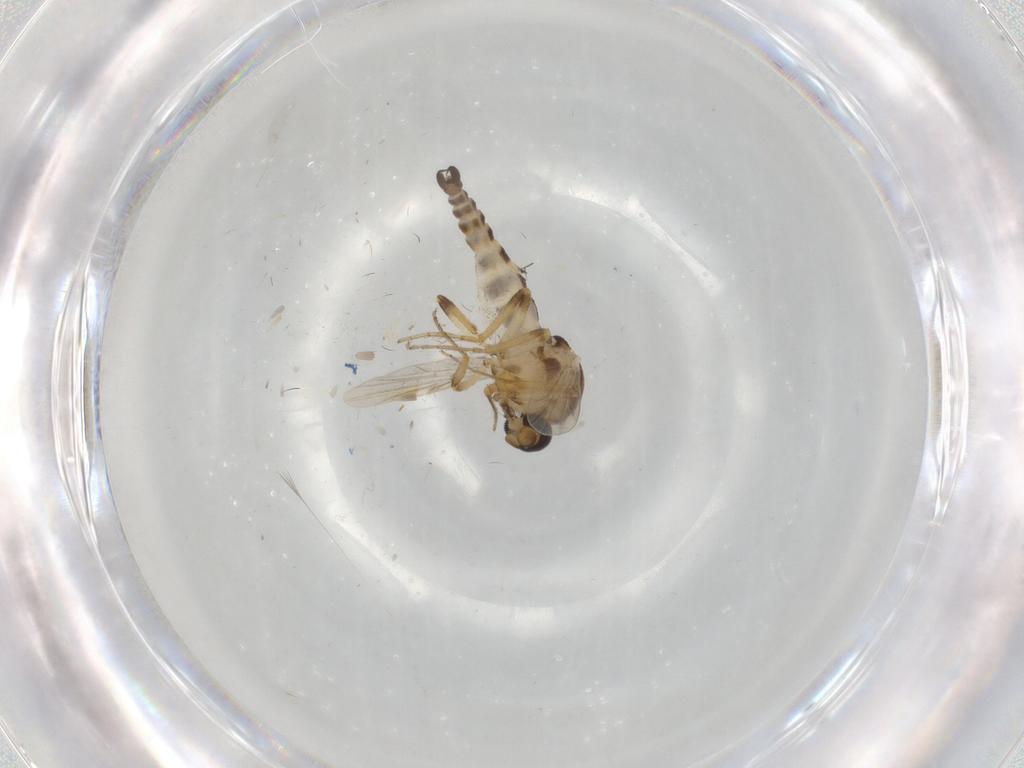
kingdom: Animalia
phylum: Arthropoda
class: Insecta
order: Diptera
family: Ceratopogonidae
